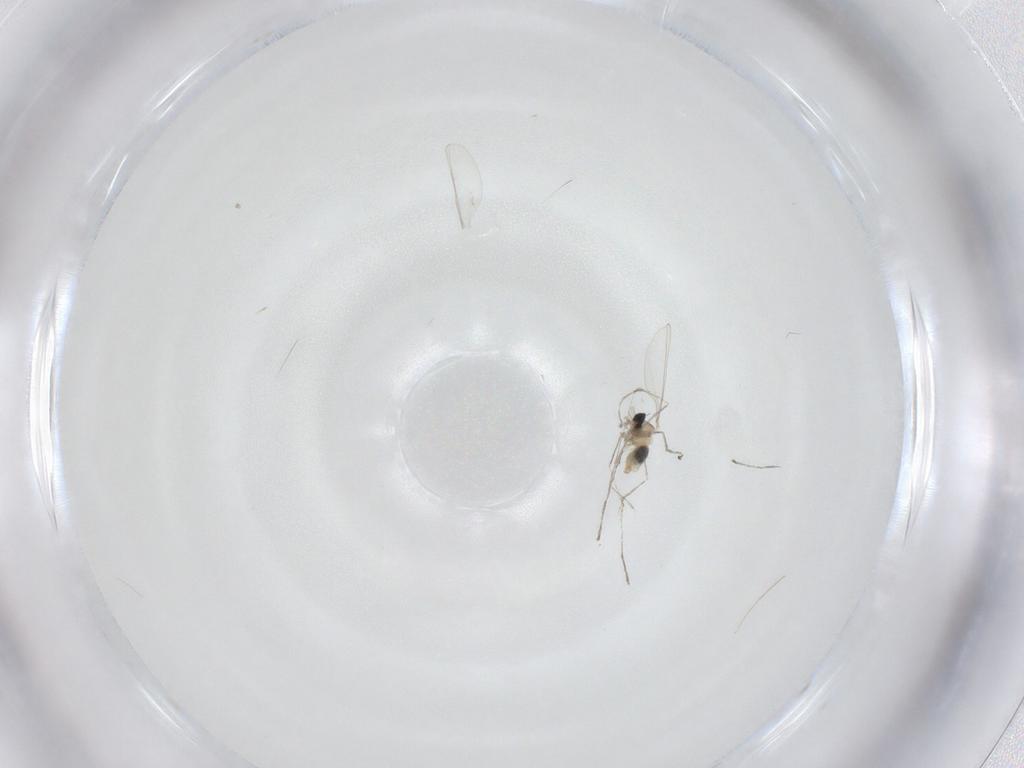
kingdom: Animalia
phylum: Arthropoda
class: Insecta
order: Diptera
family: Cecidomyiidae
